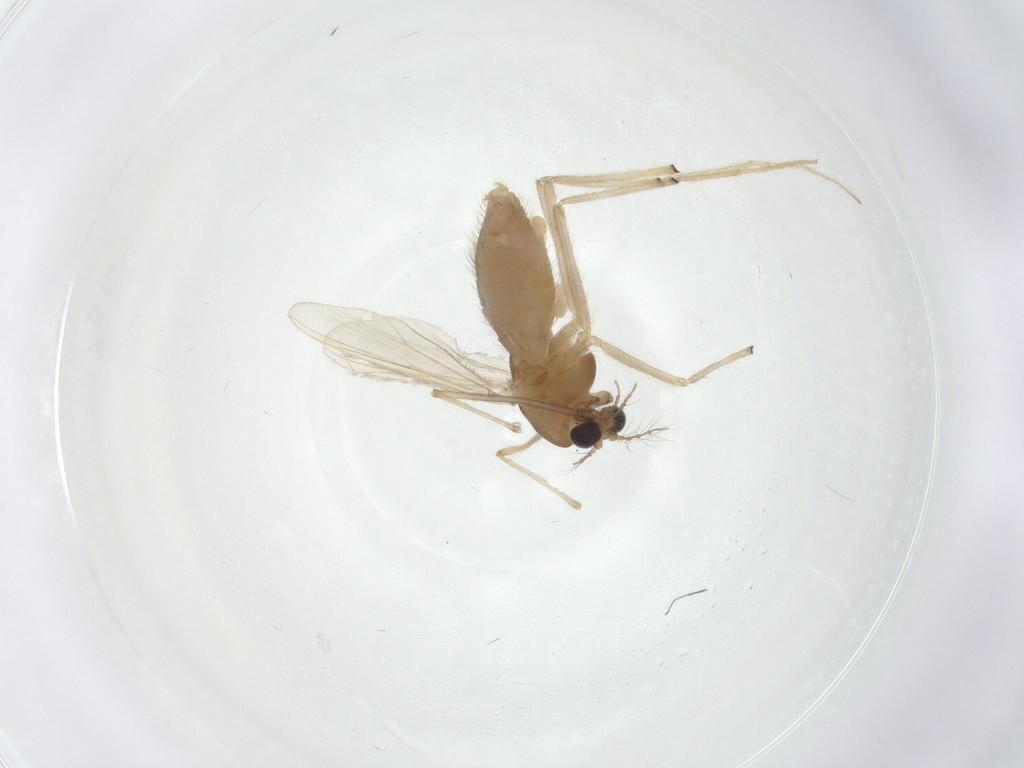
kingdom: Animalia
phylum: Arthropoda
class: Insecta
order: Diptera
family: Chironomidae
